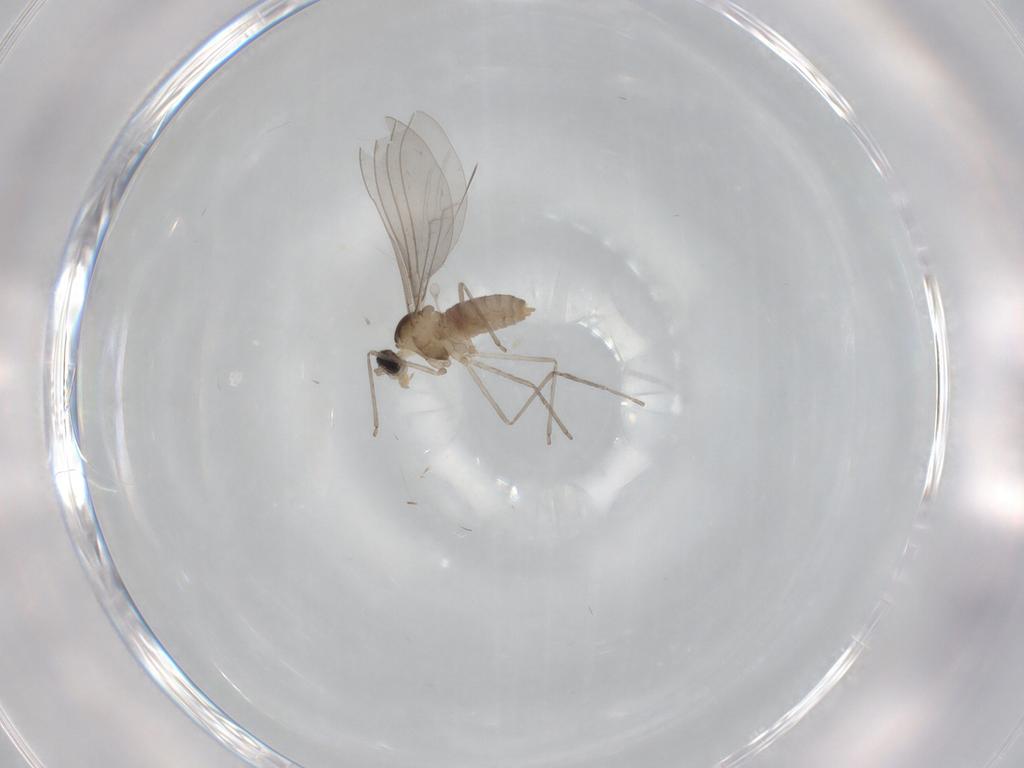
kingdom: Animalia
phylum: Arthropoda
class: Insecta
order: Diptera
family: Cecidomyiidae
